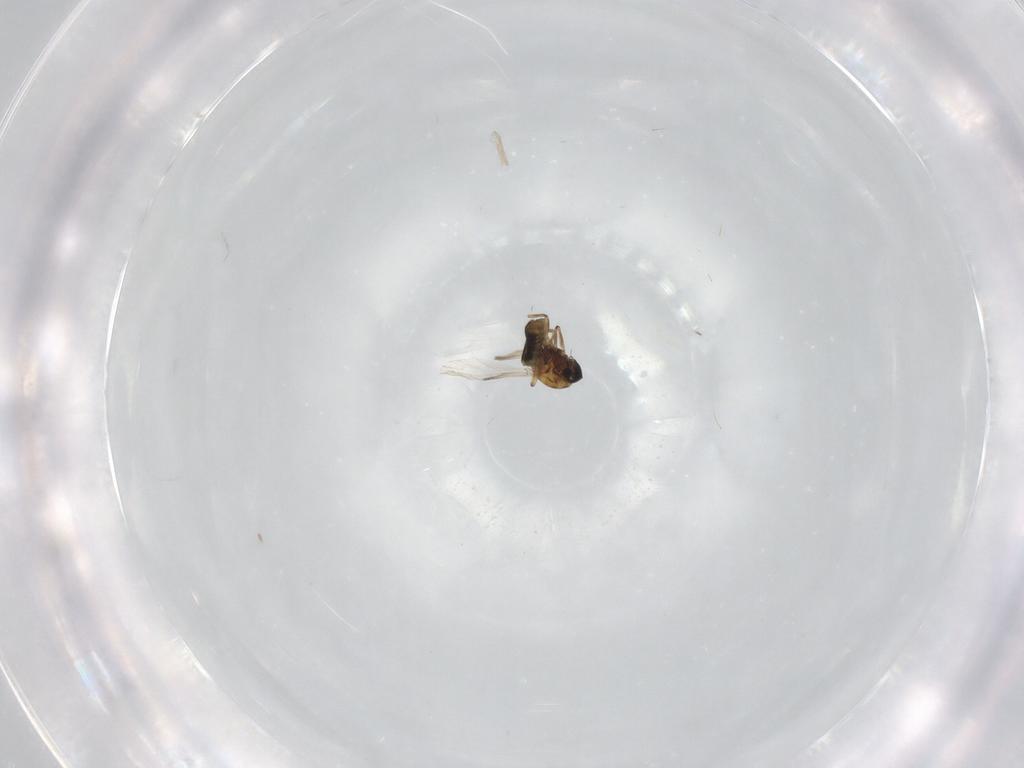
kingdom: Animalia
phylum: Arthropoda
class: Insecta
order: Diptera
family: Ceratopogonidae
